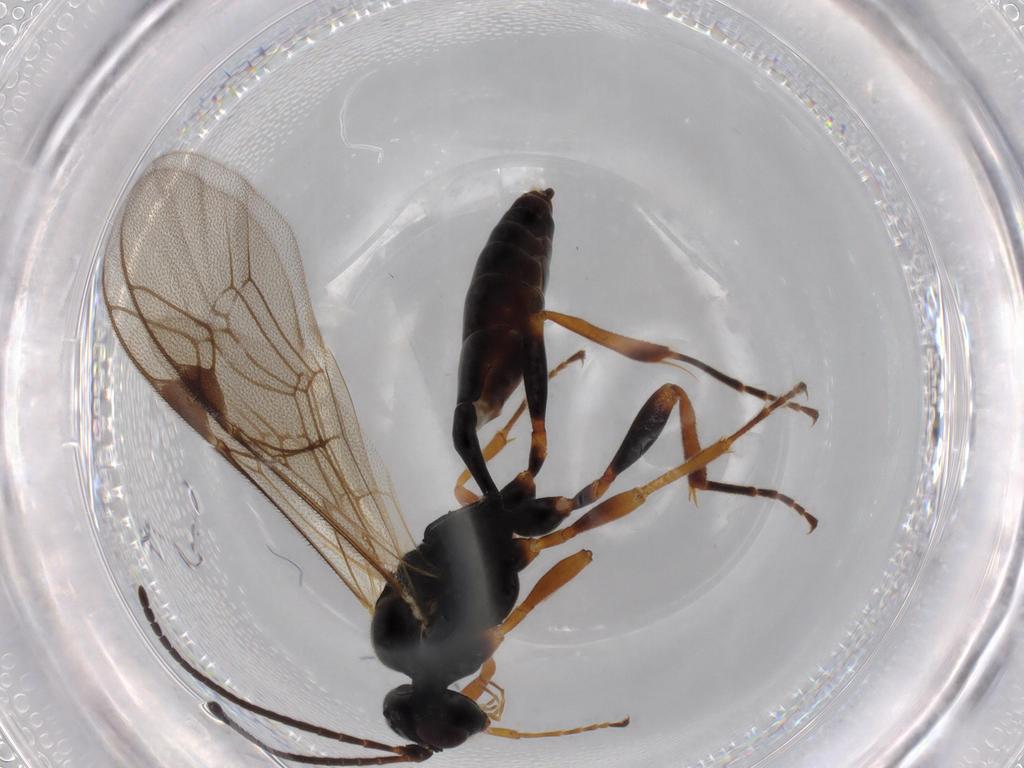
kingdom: Animalia
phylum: Arthropoda
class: Insecta
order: Hymenoptera
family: Ichneumonidae
